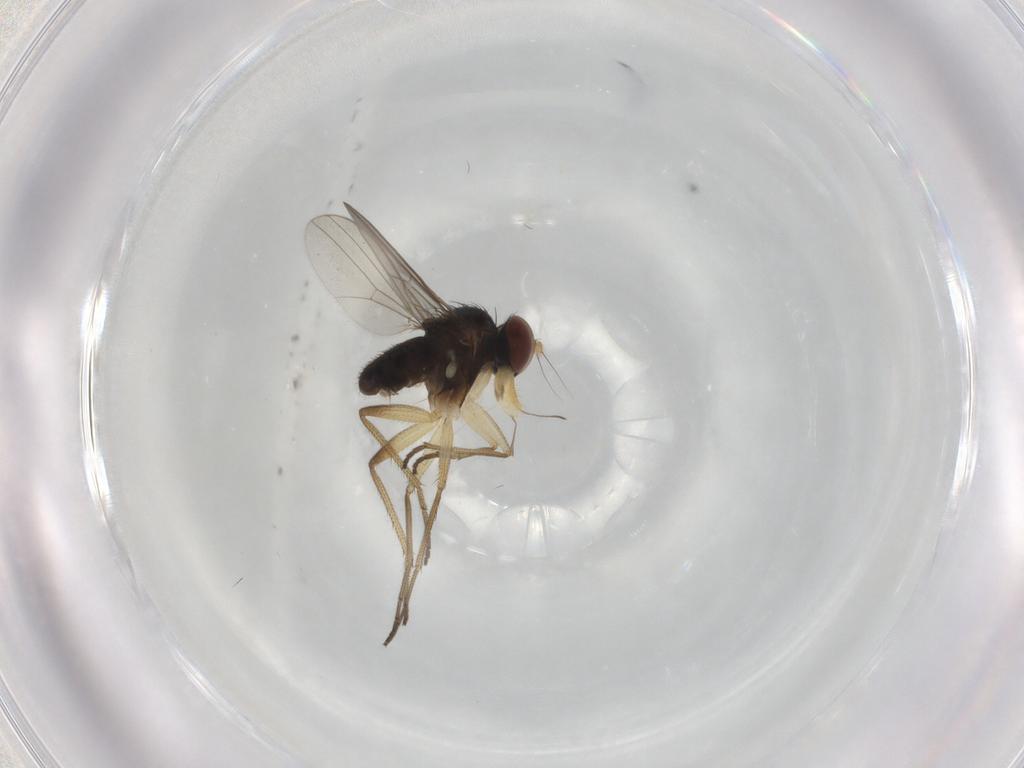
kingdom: Animalia
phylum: Arthropoda
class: Insecta
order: Diptera
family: Dolichopodidae
